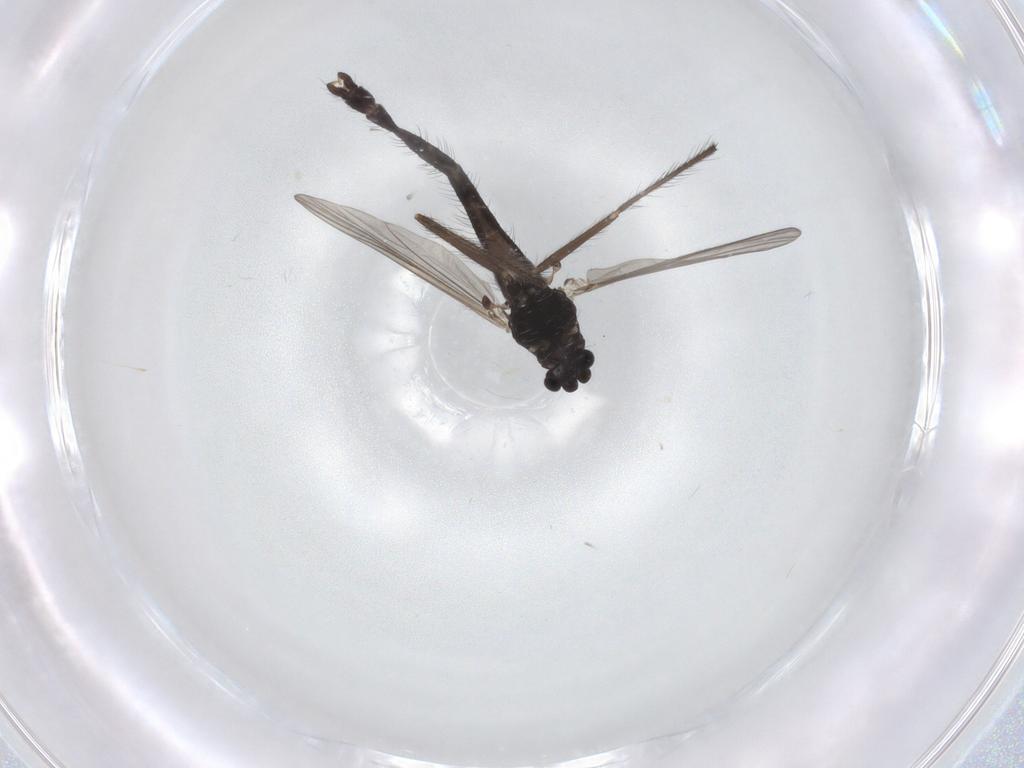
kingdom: Animalia
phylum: Arthropoda
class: Insecta
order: Diptera
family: Chironomidae
